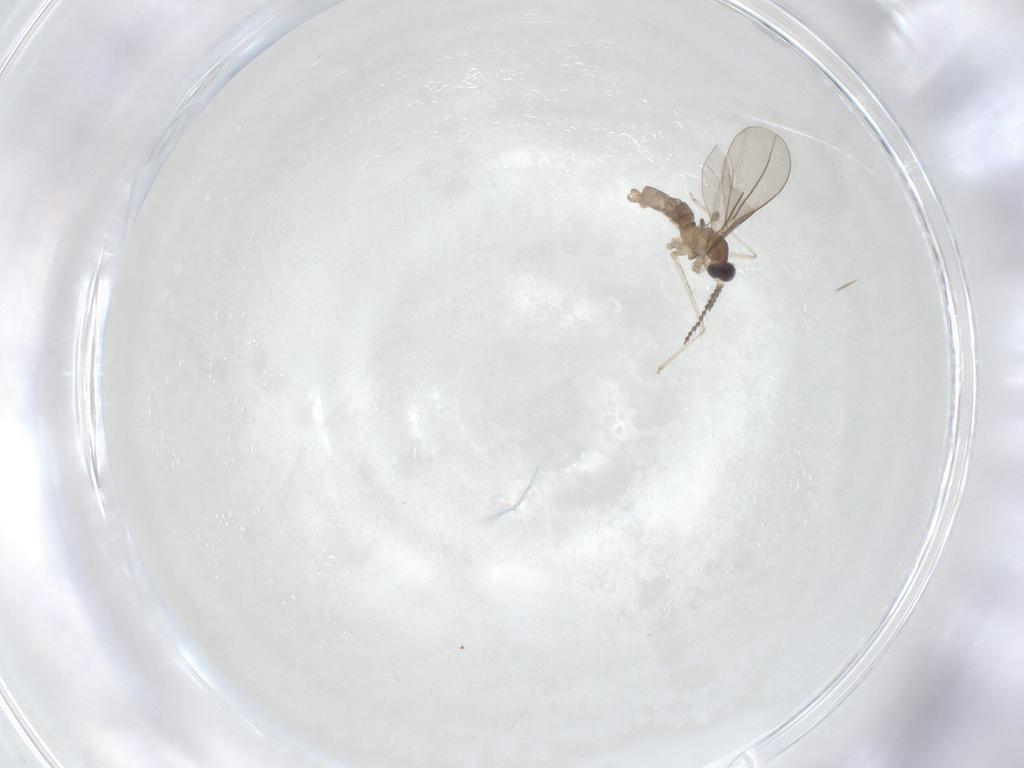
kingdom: Animalia
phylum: Arthropoda
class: Insecta
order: Diptera
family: Cecidomyiidae
